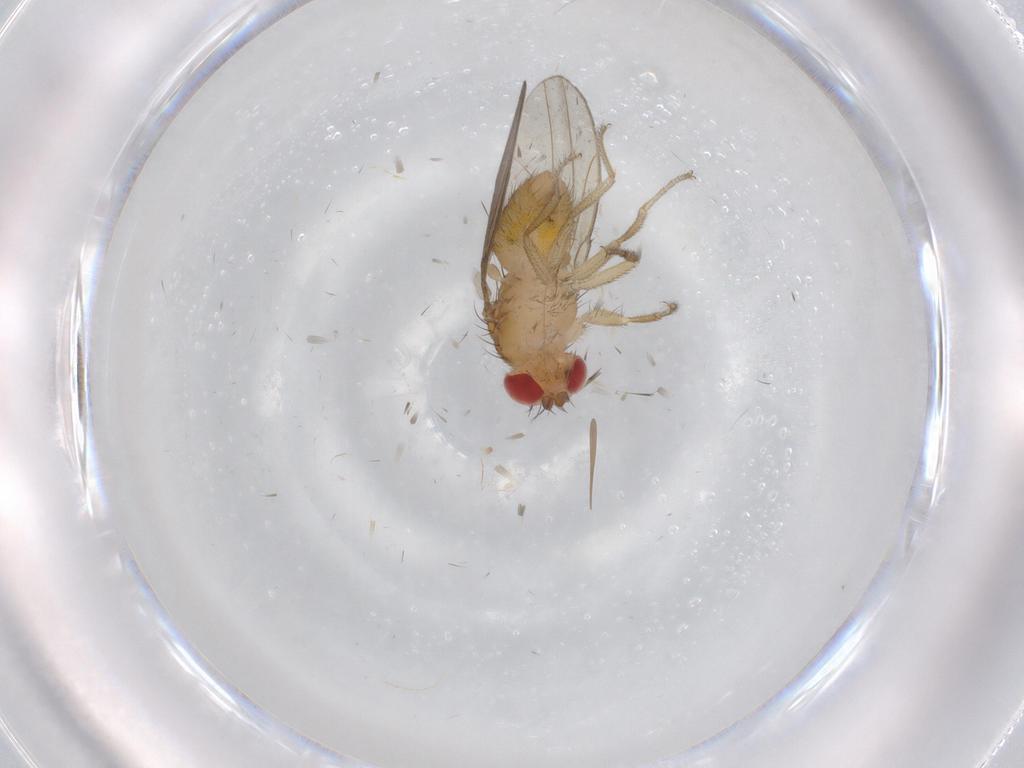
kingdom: Animalia
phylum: Arthropoda
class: Insecta
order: Diptera
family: Drosophilidae
